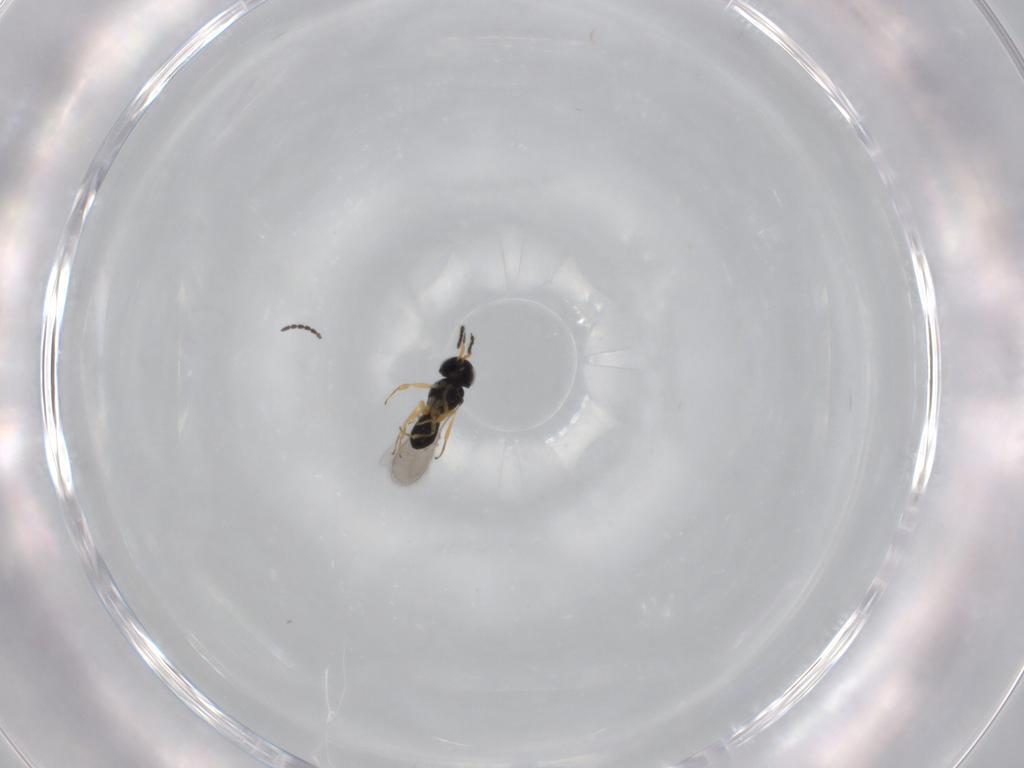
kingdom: Animalia
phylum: Arthropoda
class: Insecta
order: Hymenoptera
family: Scelionidae
